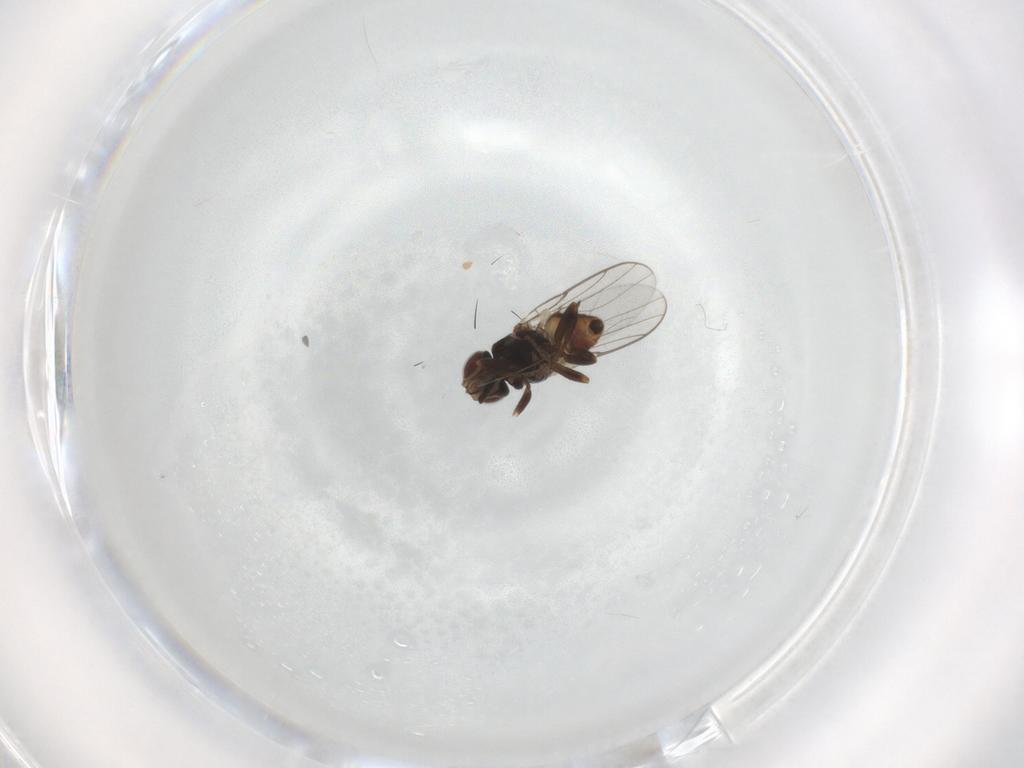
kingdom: Animalia
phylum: Arthropoda
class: Insecta
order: Diptera
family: Chloropidae
